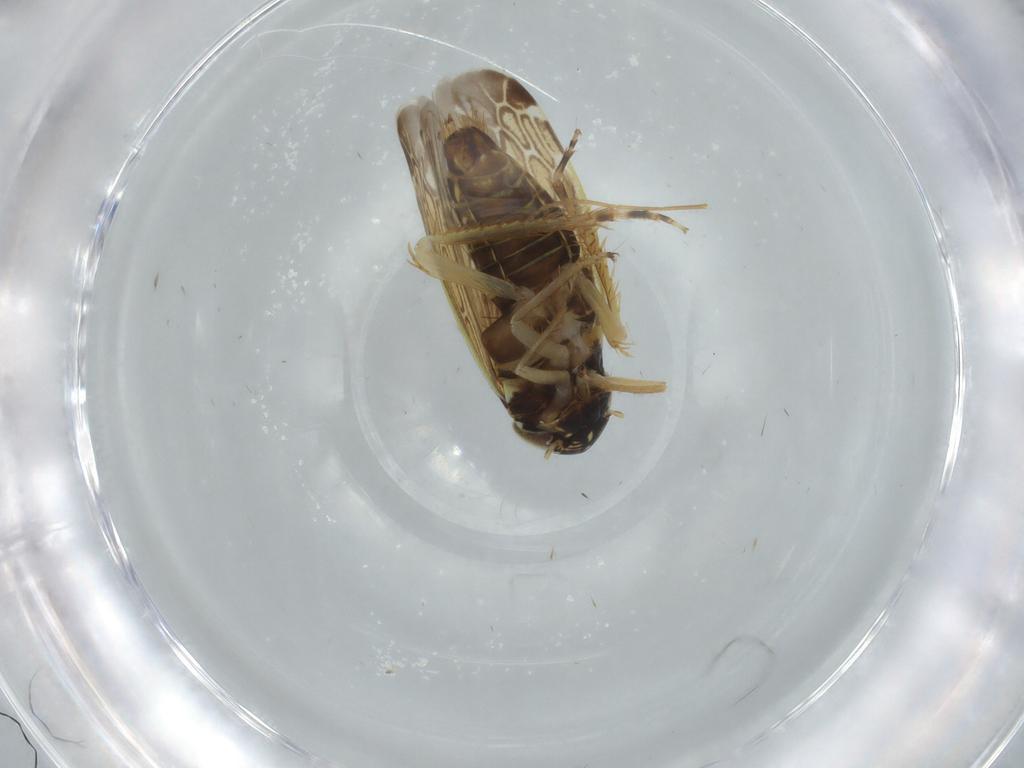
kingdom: Animalia
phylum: Arthropoda
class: Insecta
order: Hemiptera
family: Cicadellidae
